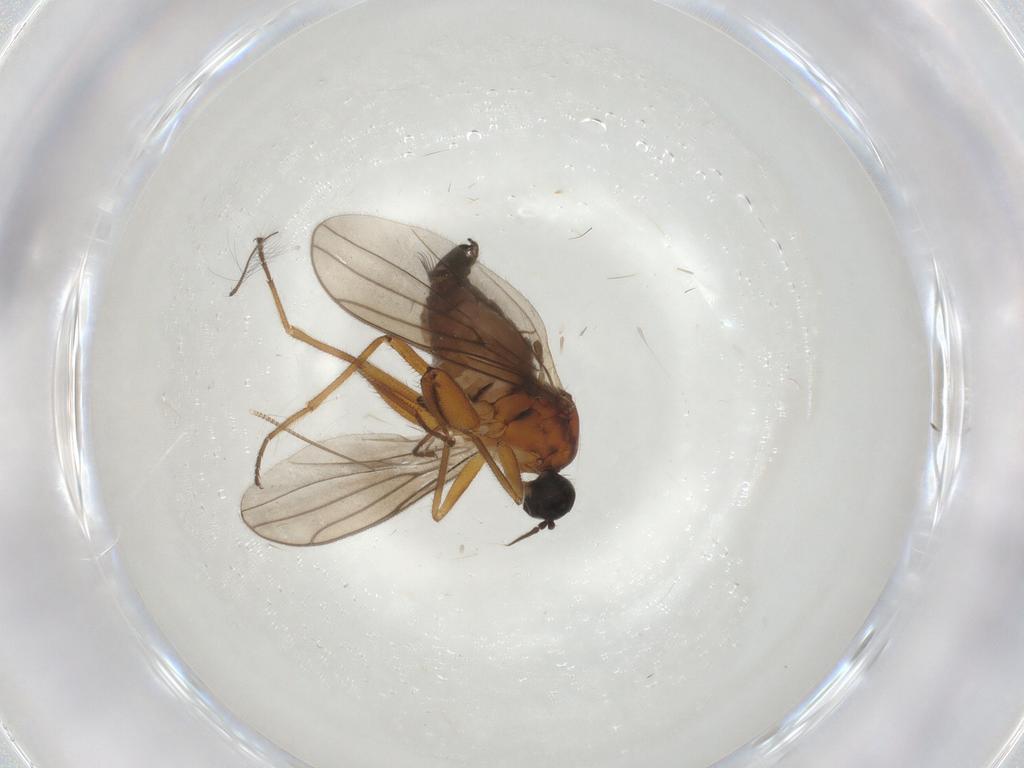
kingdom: Animalia
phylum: Arthropoda
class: Insecta
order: Diptera
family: Hybotidae
